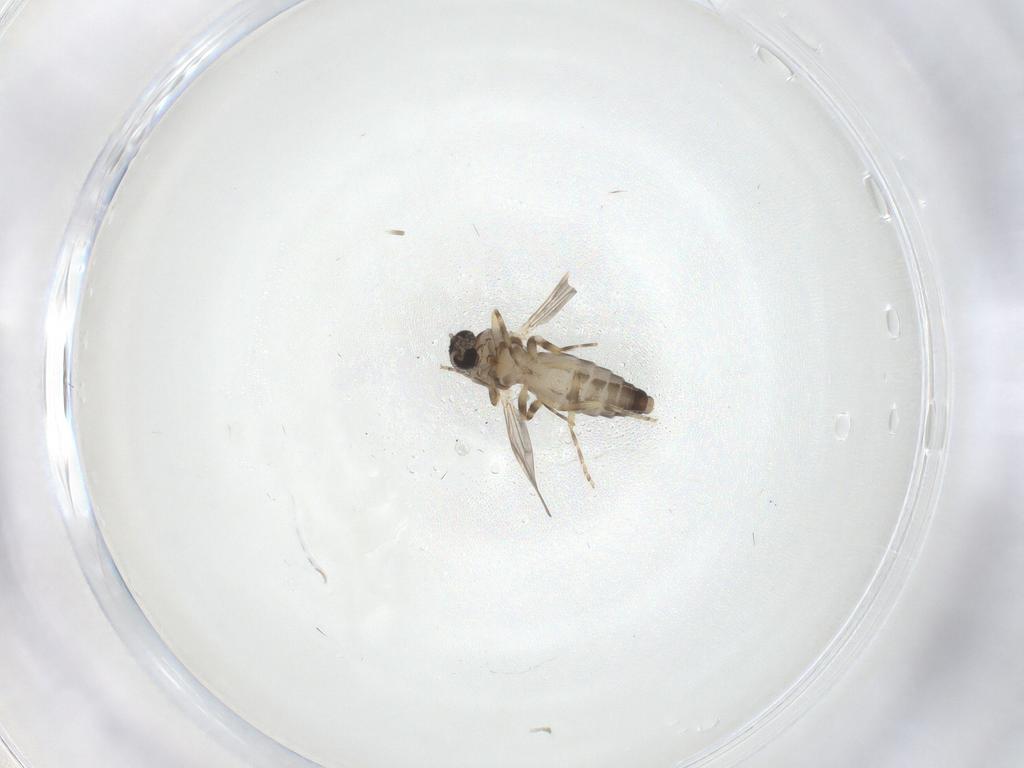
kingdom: Animalia
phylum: Arthropoda
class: Insecta
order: Diptera
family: Ceratopogonidae
